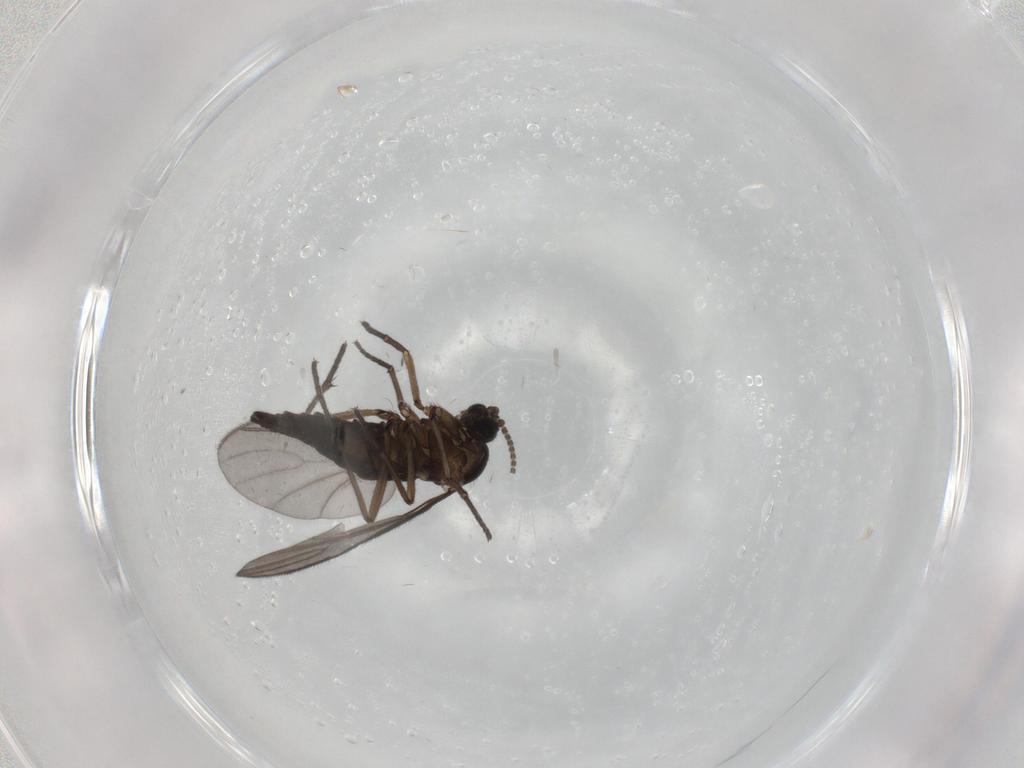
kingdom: Animalia
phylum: Arthropoda
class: Insecta
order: Diptera
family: Sciaridae
